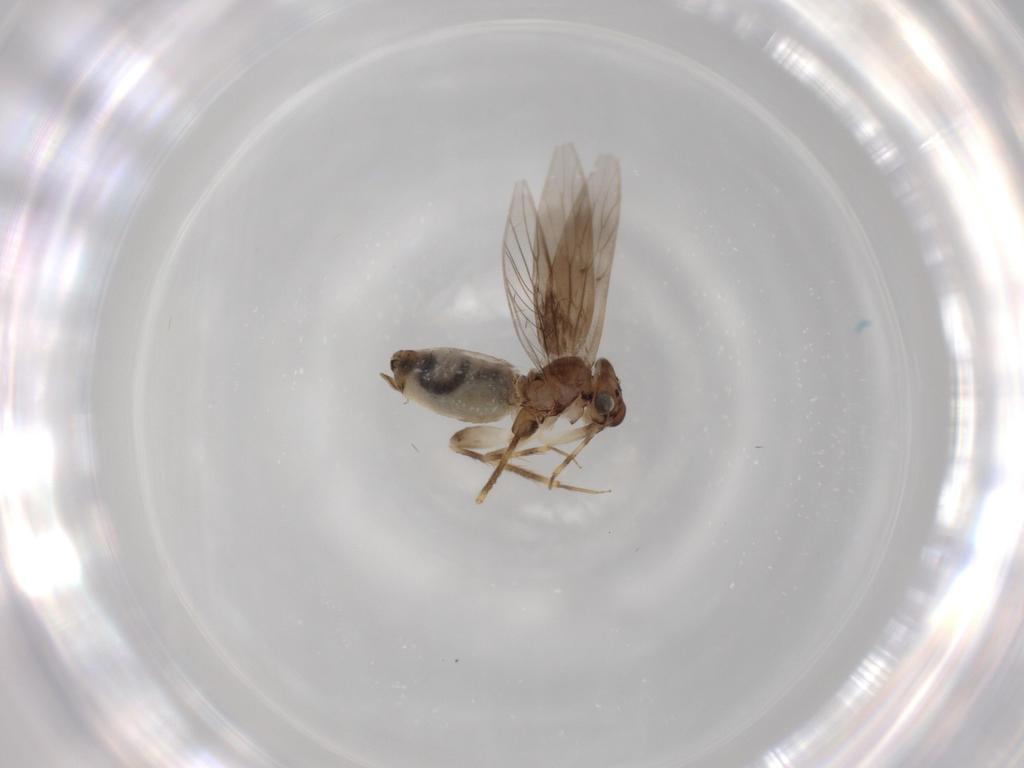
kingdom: Animalia
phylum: Arthropoda
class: Insecta
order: Psocodea
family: Lepidopsocidae
